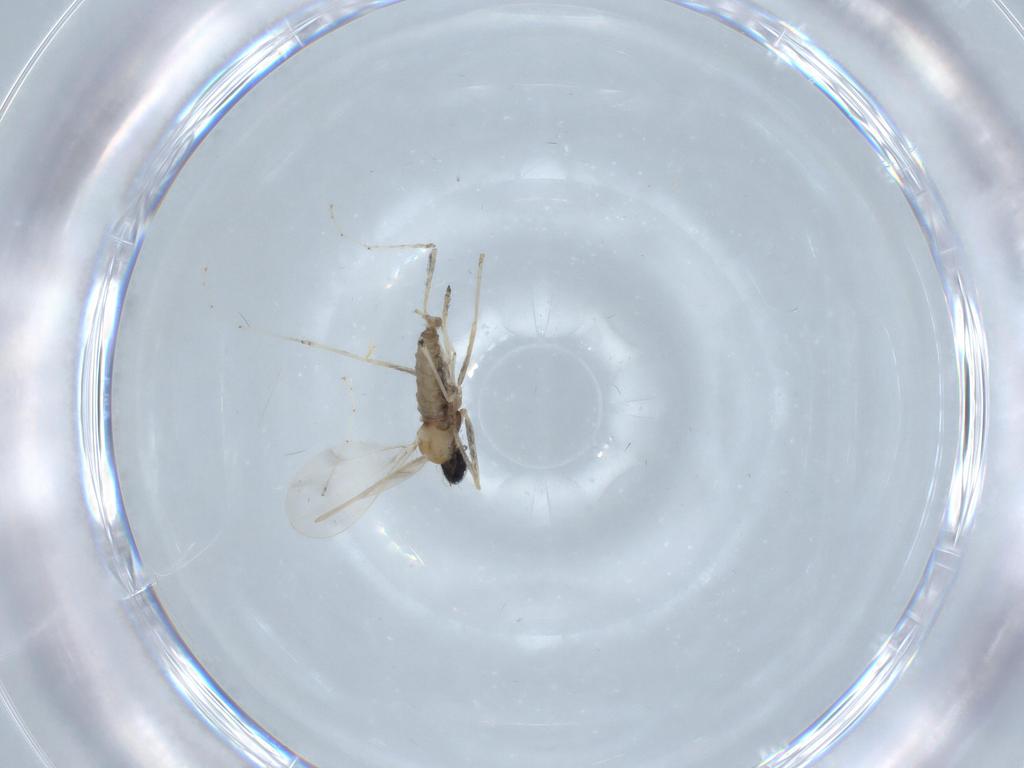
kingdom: Animalia
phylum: Arthropoda
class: Insecta
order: Diptera
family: Cecidomyiidae
